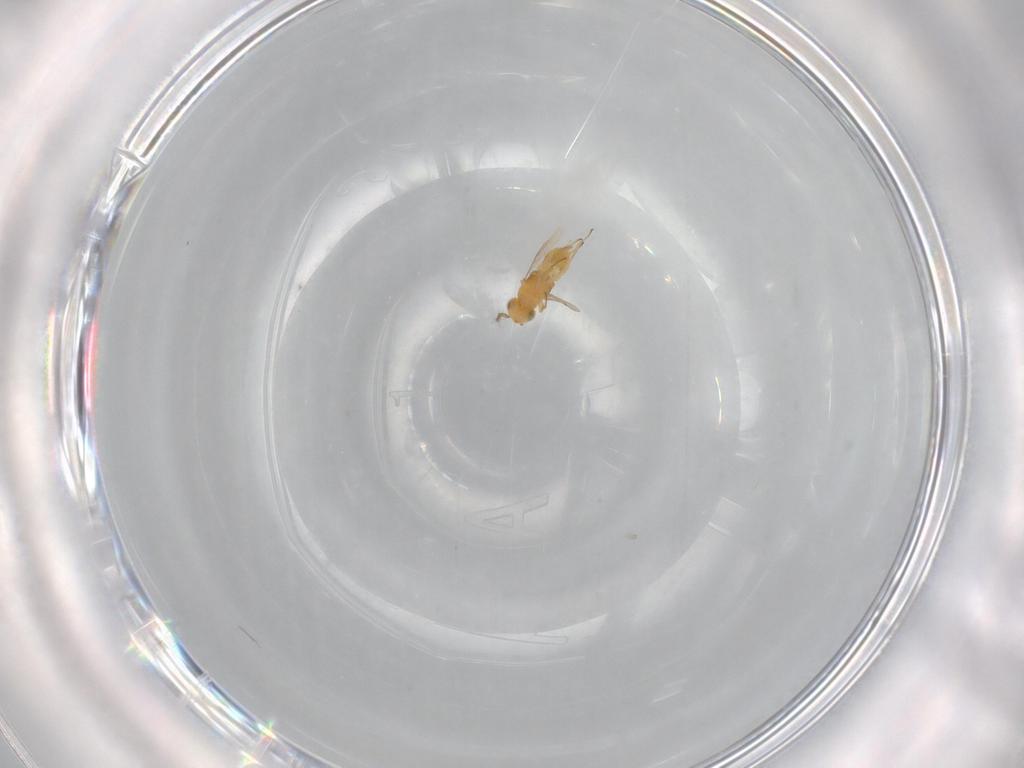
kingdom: Animalia
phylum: Arthropoda
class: Insecta
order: Hymenoptera
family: Encyrtidae
